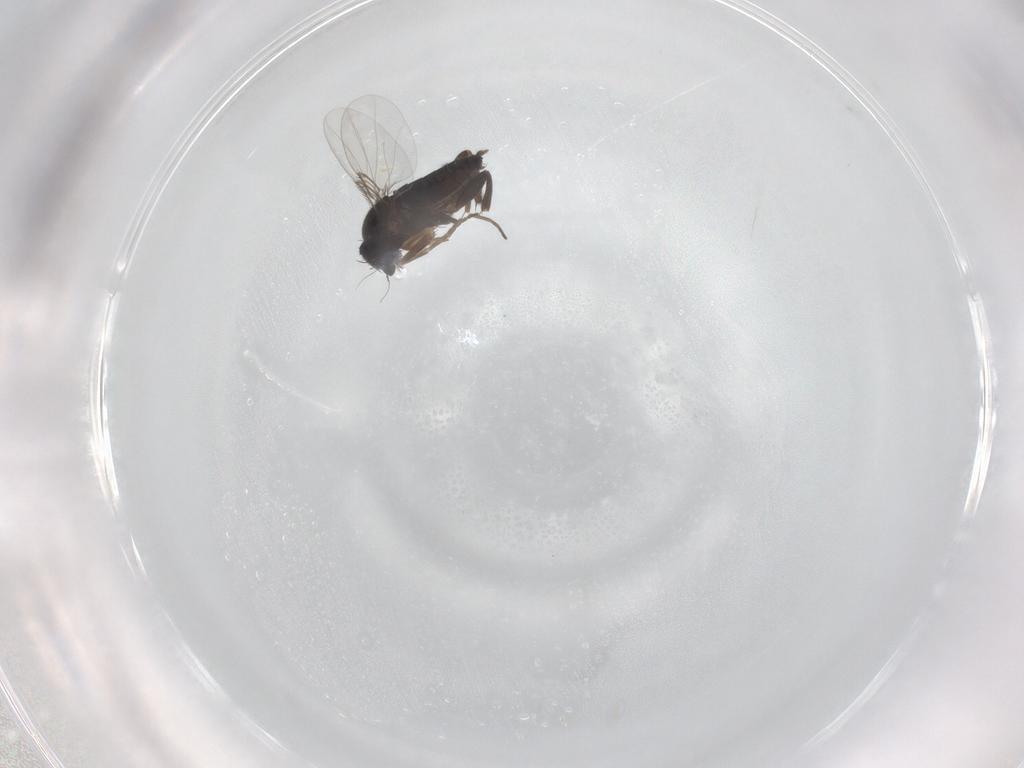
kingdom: Animalia
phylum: Arthropoda
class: Insecta
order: Diptera
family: Phoridae
